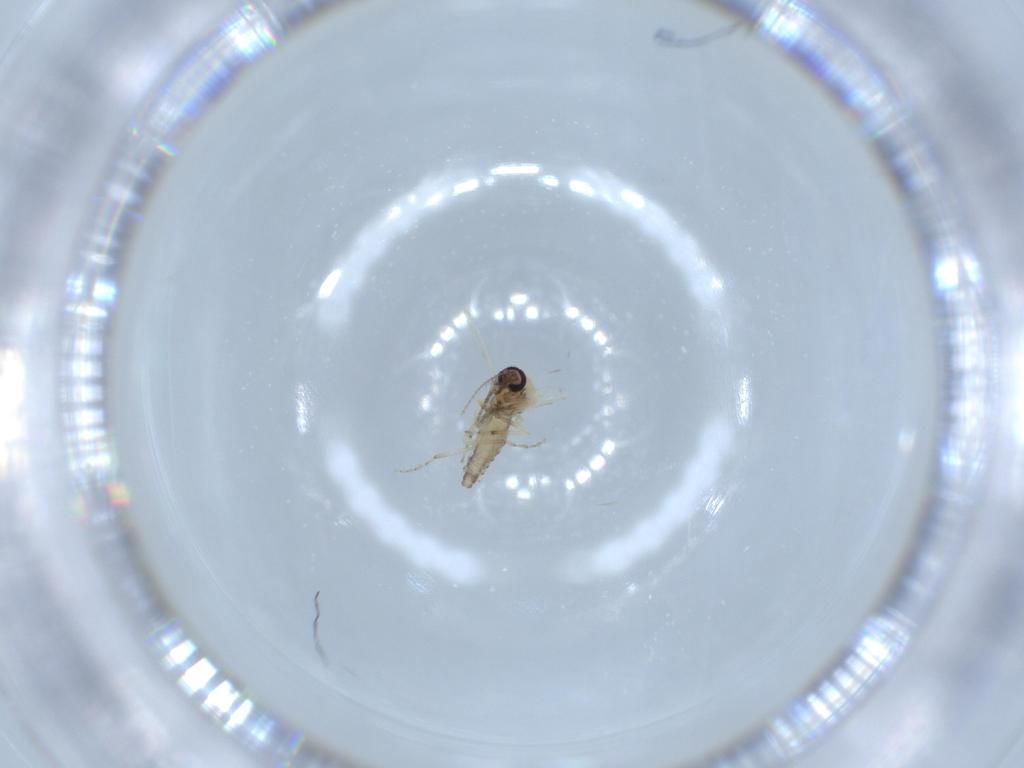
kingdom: Animalia
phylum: Arthropoda
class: Insecta
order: Diptera
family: Ceratopogonidae
